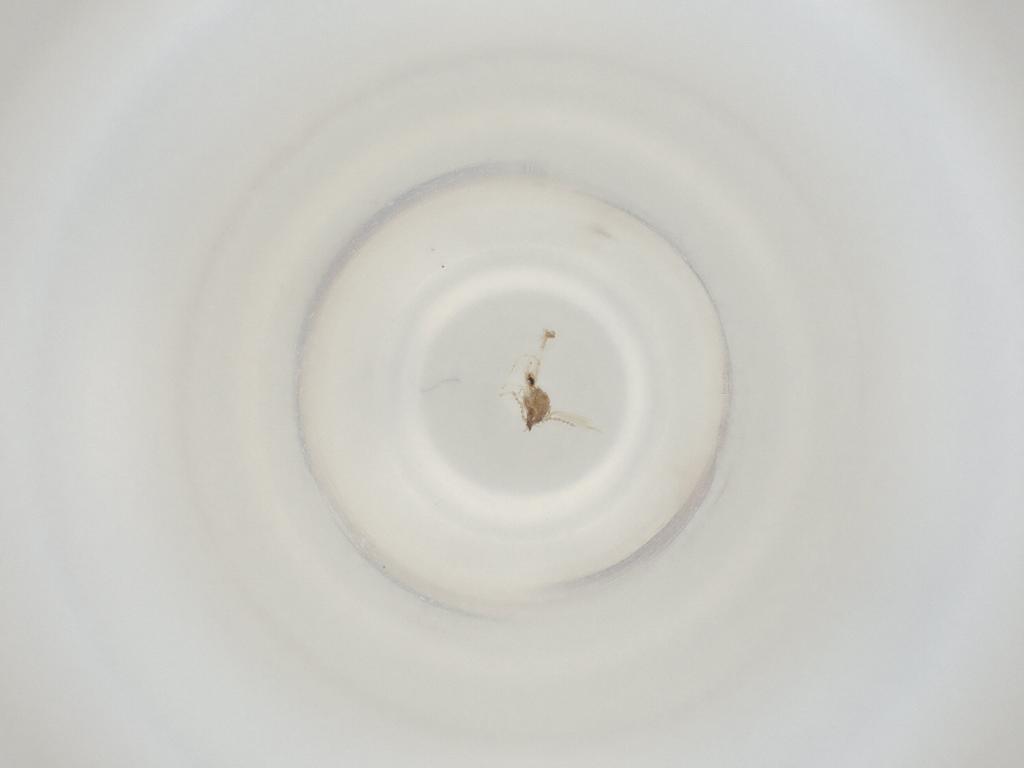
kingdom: Animalia
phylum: Arthropoda
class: Insecta
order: Diptera
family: Cecidomyiidae
